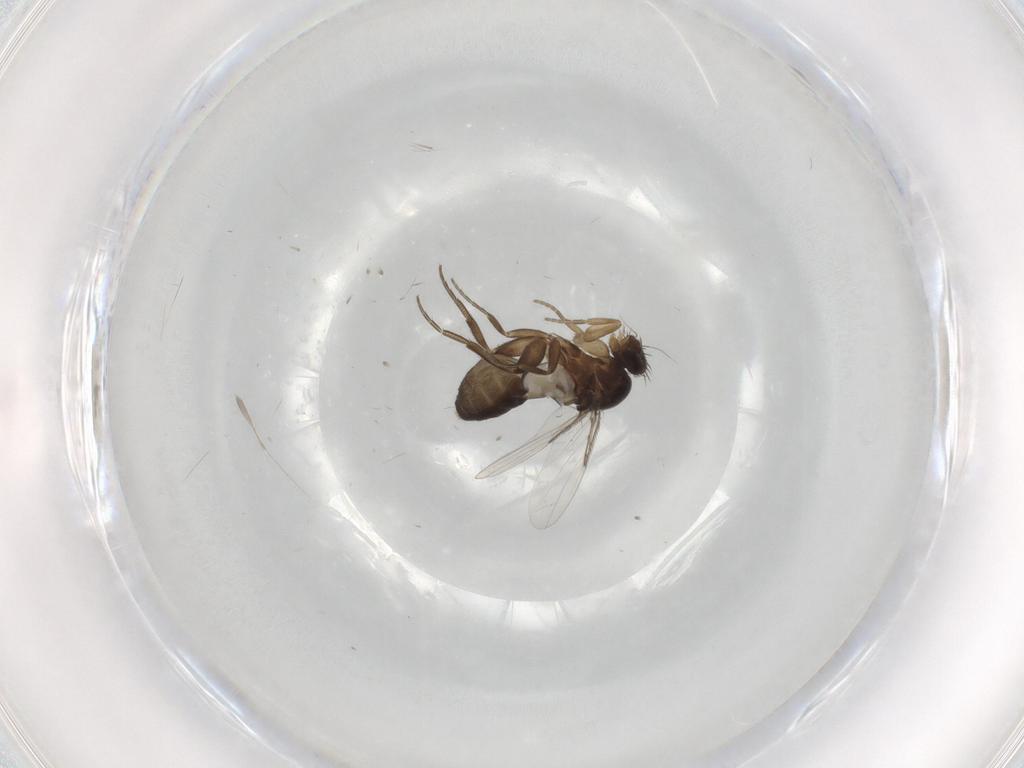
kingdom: Animalia
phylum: Arthropoda
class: Insecta
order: Diptera
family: Phoridae
